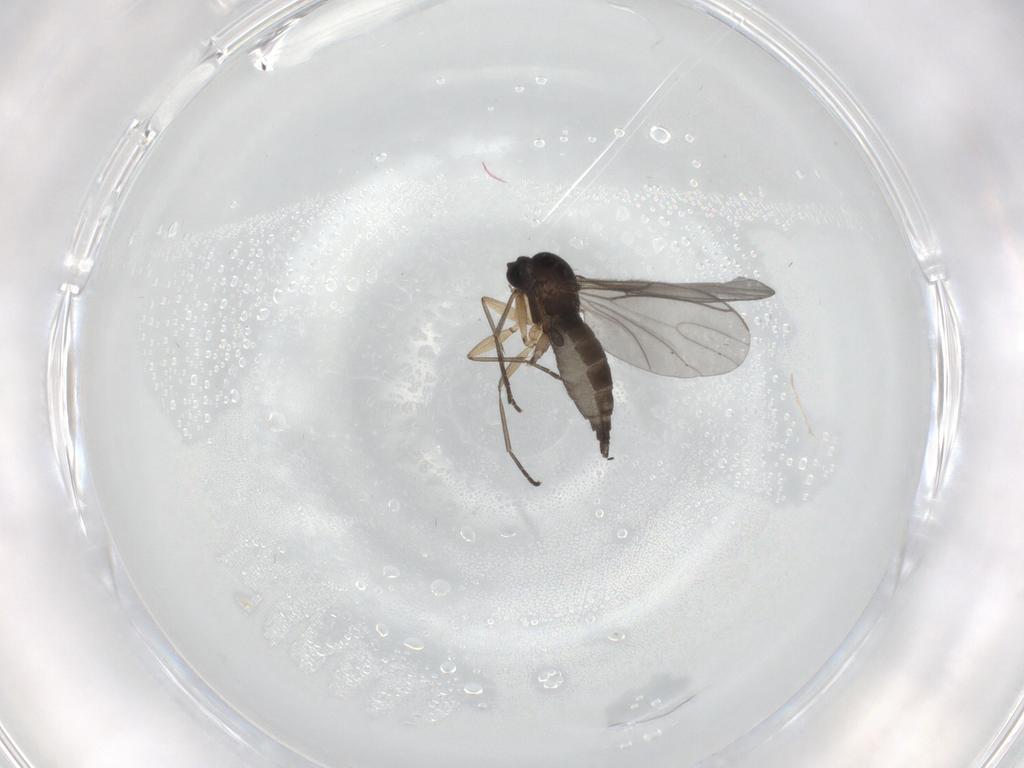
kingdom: Animalia
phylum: Arthropoda
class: Insecta
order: Diptera
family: Sciaridae
